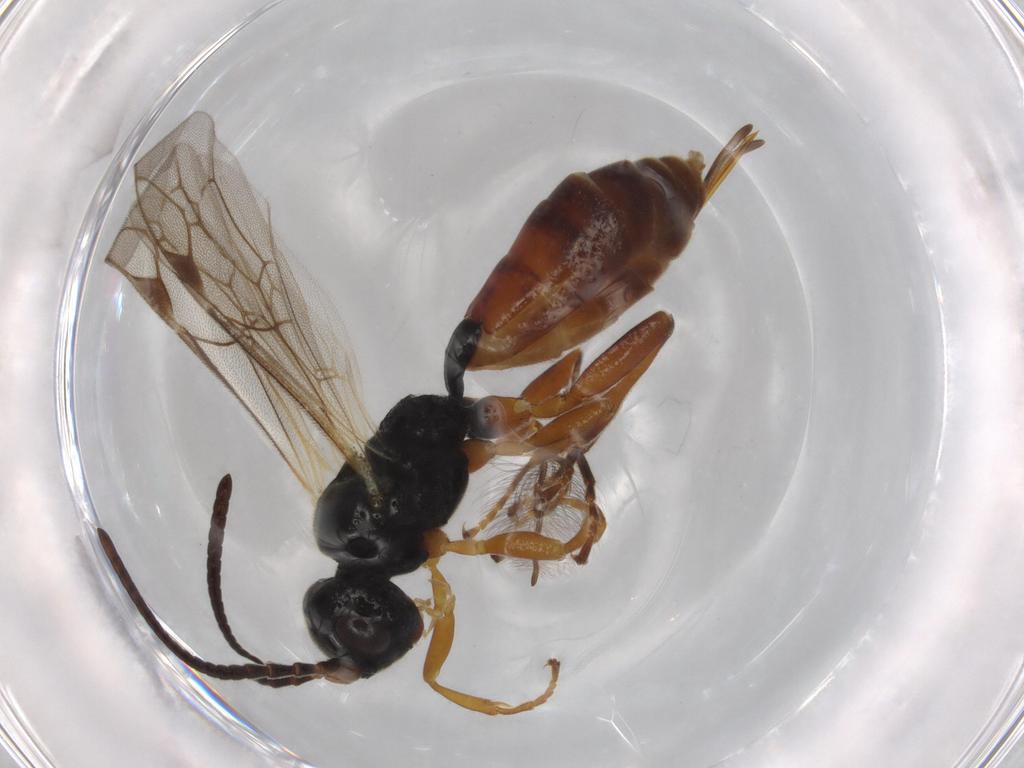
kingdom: Animalia
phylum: Arthropoda
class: Insecta
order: Hymenoptera
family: Ichneumonidae
